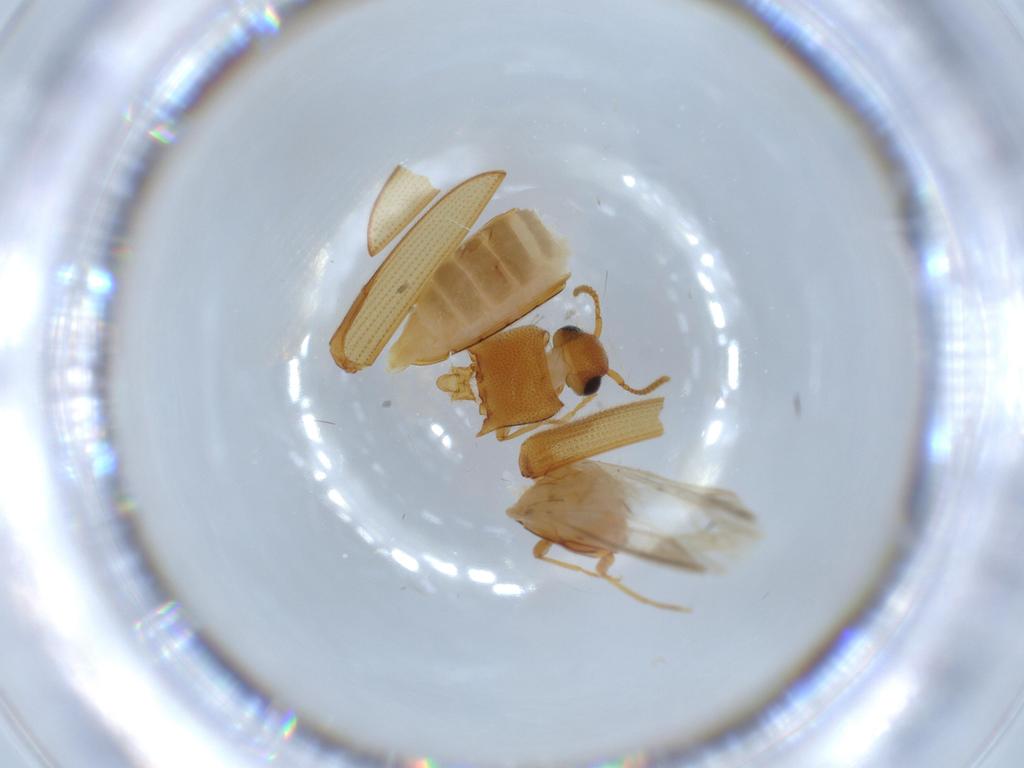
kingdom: Animalia
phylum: Arthropoda
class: Insecta
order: Coleoptera
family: Elateridae
